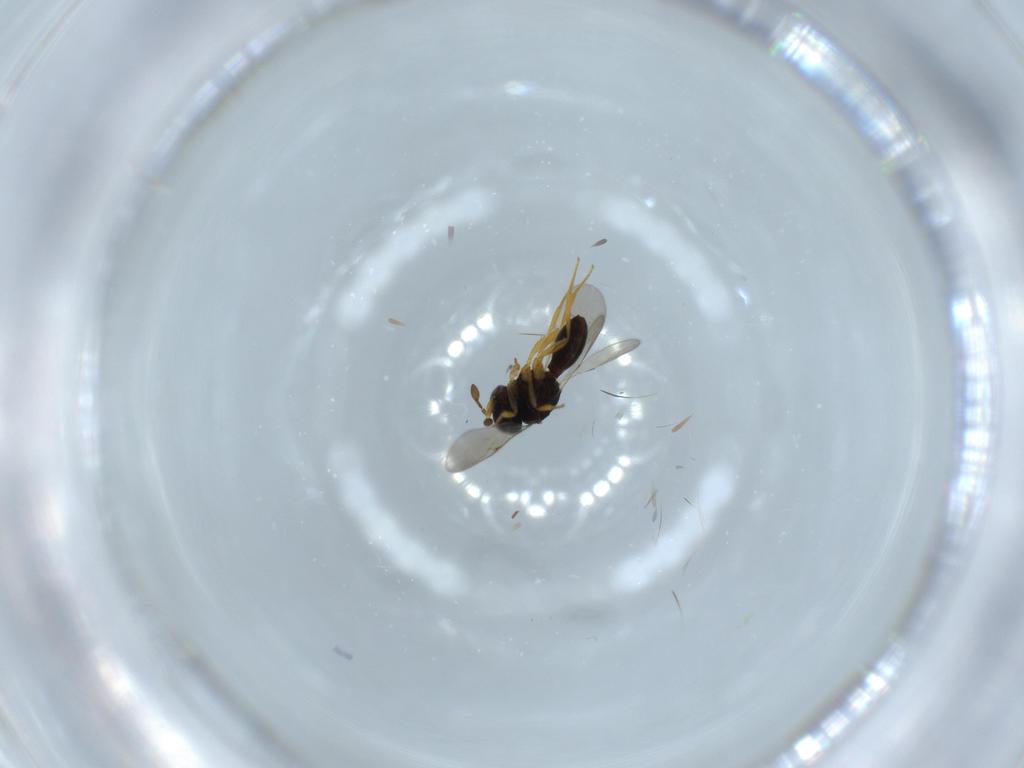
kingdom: Animalia
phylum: Arthropoda
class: Insecta
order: Hymenoptera
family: Scelionidae
